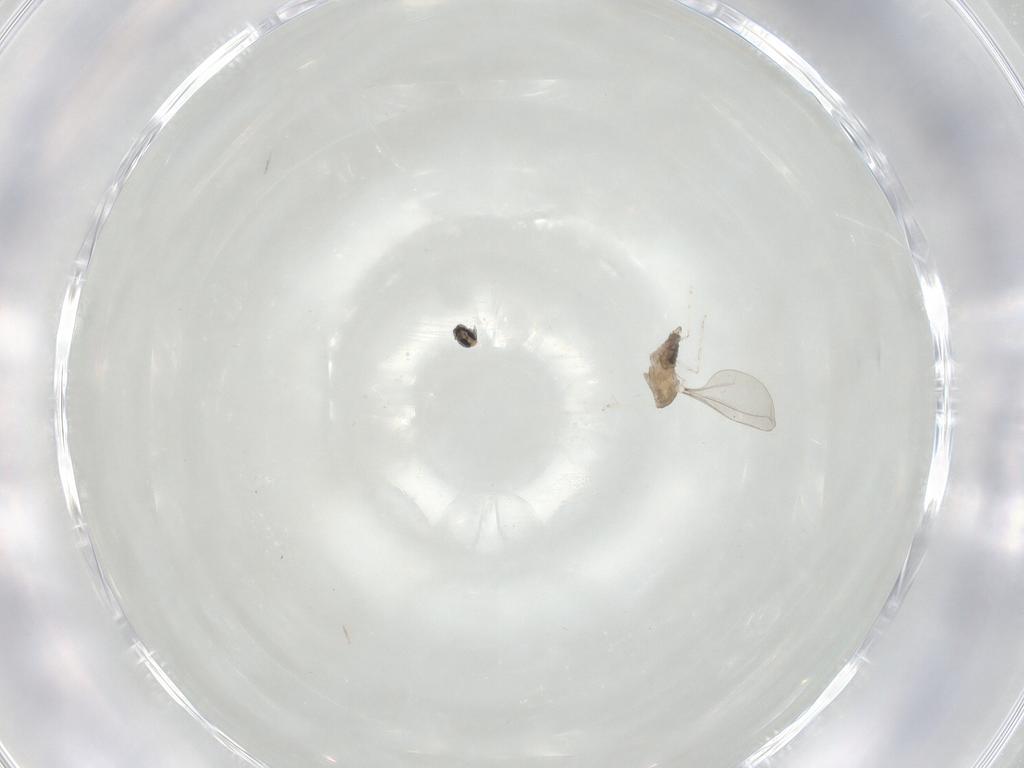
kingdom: Animalia
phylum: Arthropoda
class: Insecta
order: Diptera
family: Cecidomyiidae
